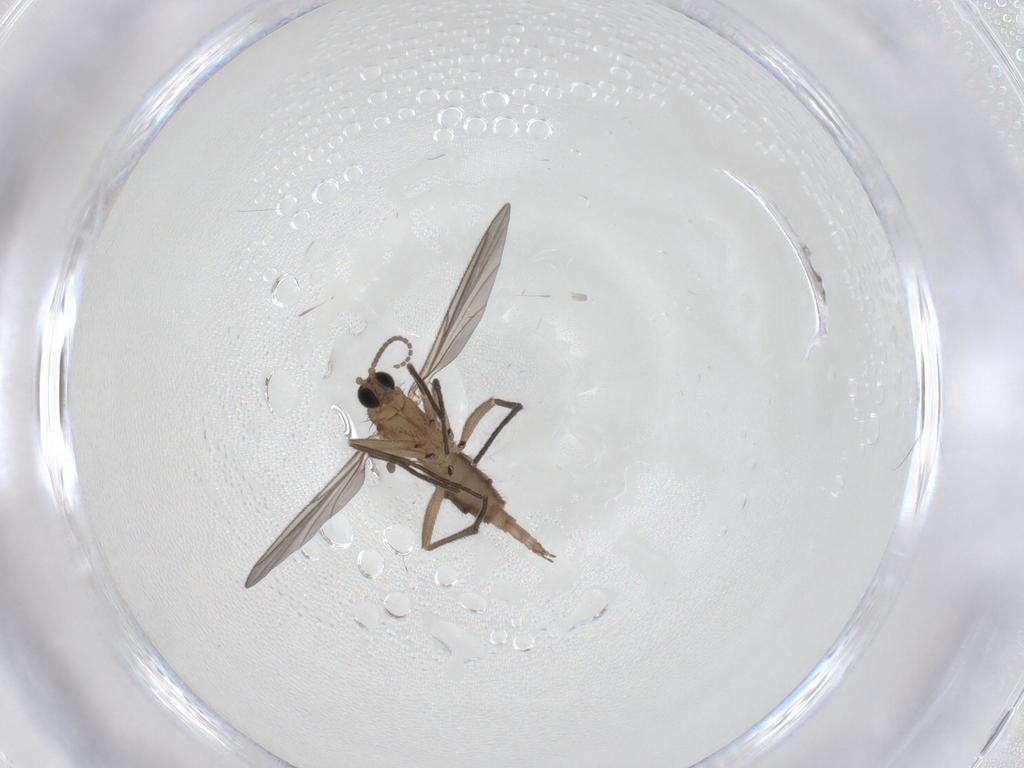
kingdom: Animalia
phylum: Arthropoda
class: Insecta
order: Diptera
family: Sciaridae
